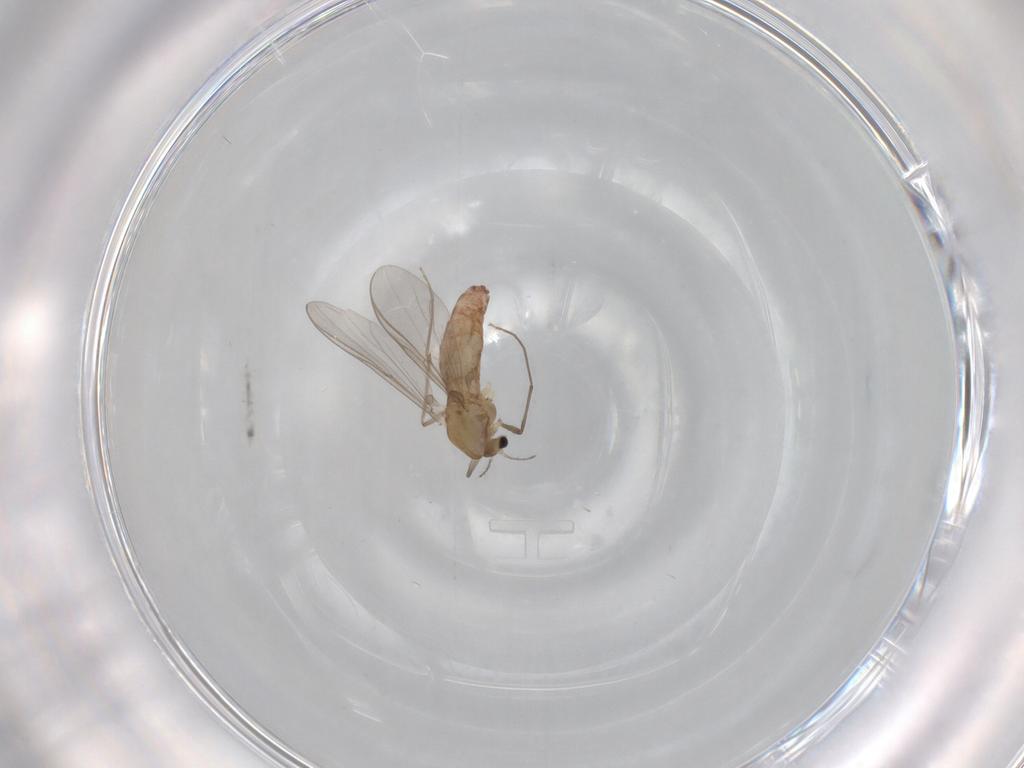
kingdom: Animalia
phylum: Arthropoda
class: Insecta
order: Diptera
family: Chironomidae
